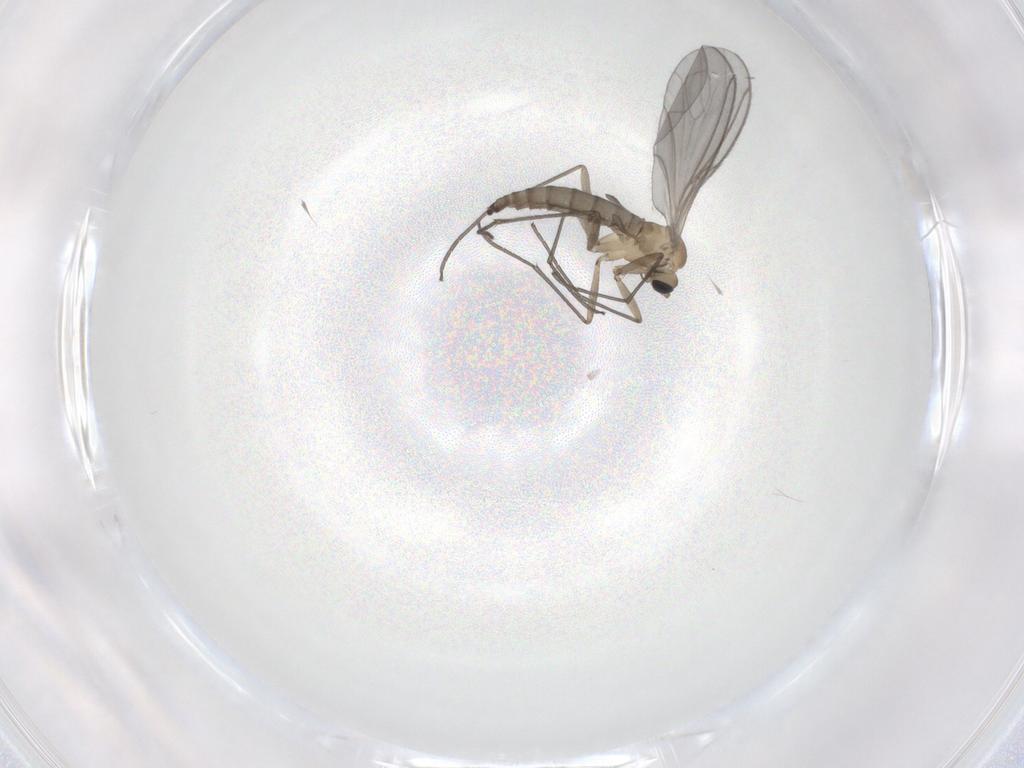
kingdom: Animalia
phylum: Arthropoda
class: Insecta
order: Diptera
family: Sciaridae
